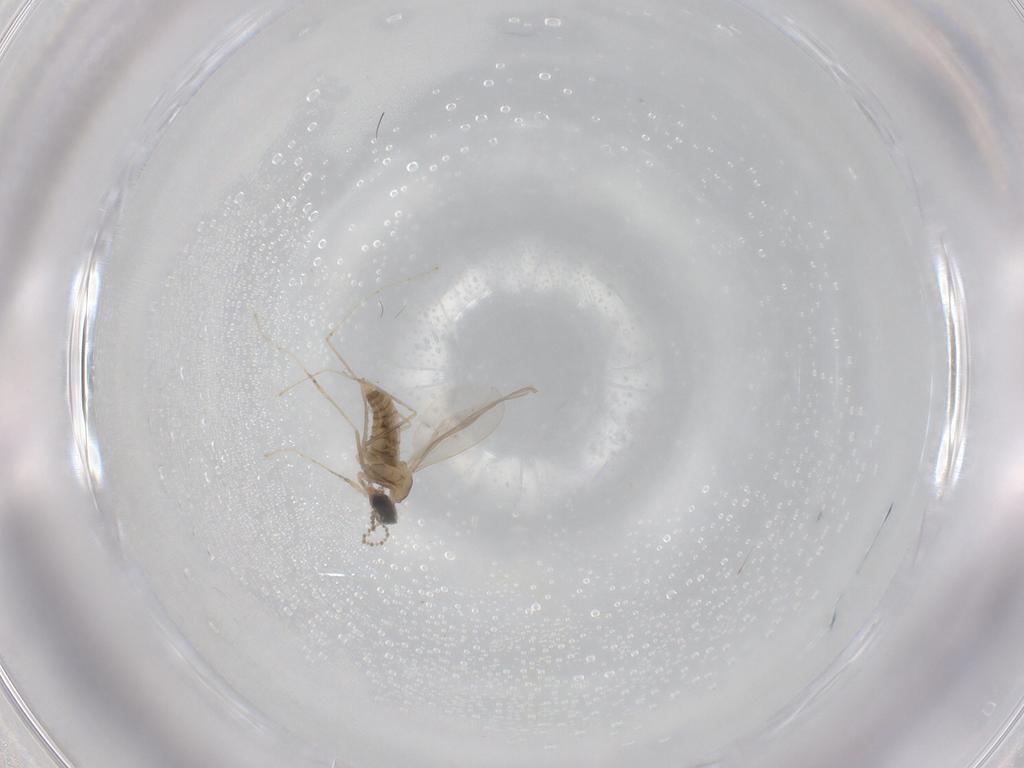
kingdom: Animalia
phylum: Arthropoda
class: Insecta
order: Diptera
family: Cecidomyiidae
